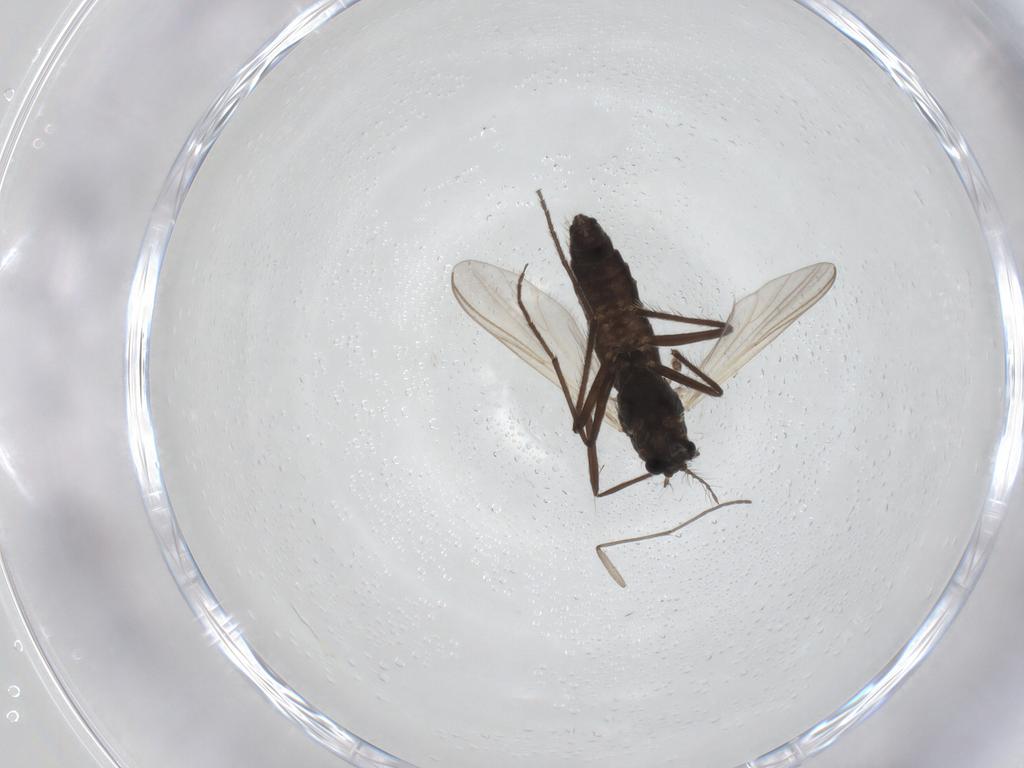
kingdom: Animalia
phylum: Arthropoda
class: Insecta
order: Diptera
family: Chironomidae
